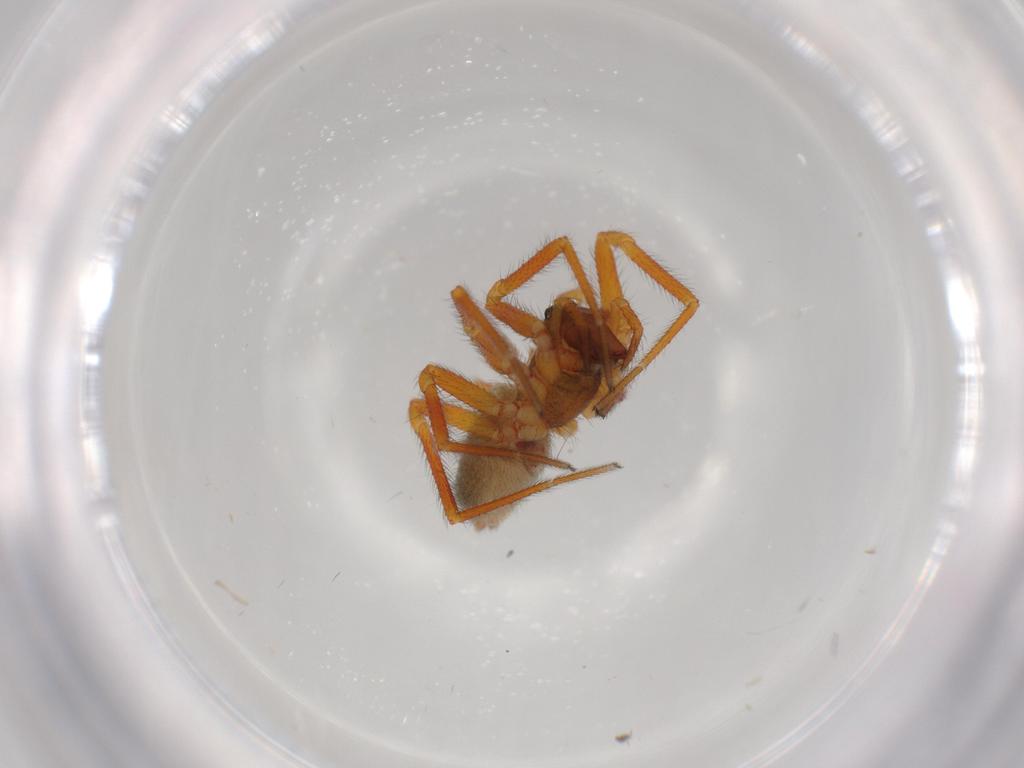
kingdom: Animalia
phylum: Arthropoda
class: Arachnida
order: Araneae
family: Linyphiidae
